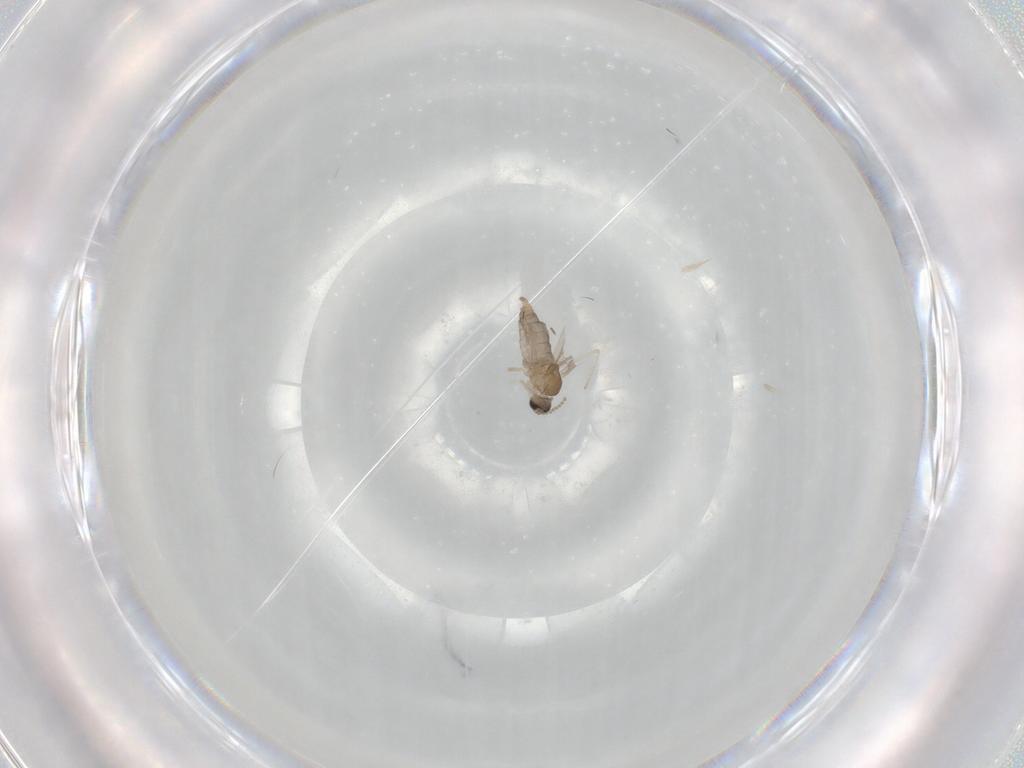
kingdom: Animalia
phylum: Arthropoda
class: Insecta
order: Diptera
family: Cecidomyiidae
